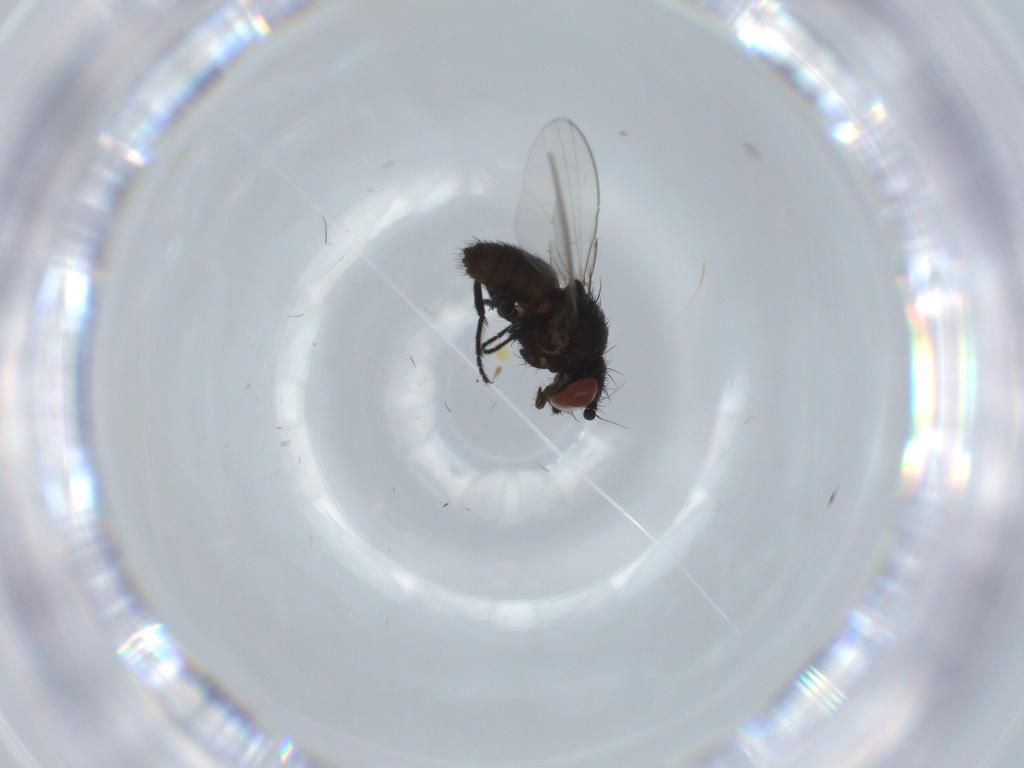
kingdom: Animalia
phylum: Arthropoda
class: Insecta
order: Diptera
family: Milichiidae
